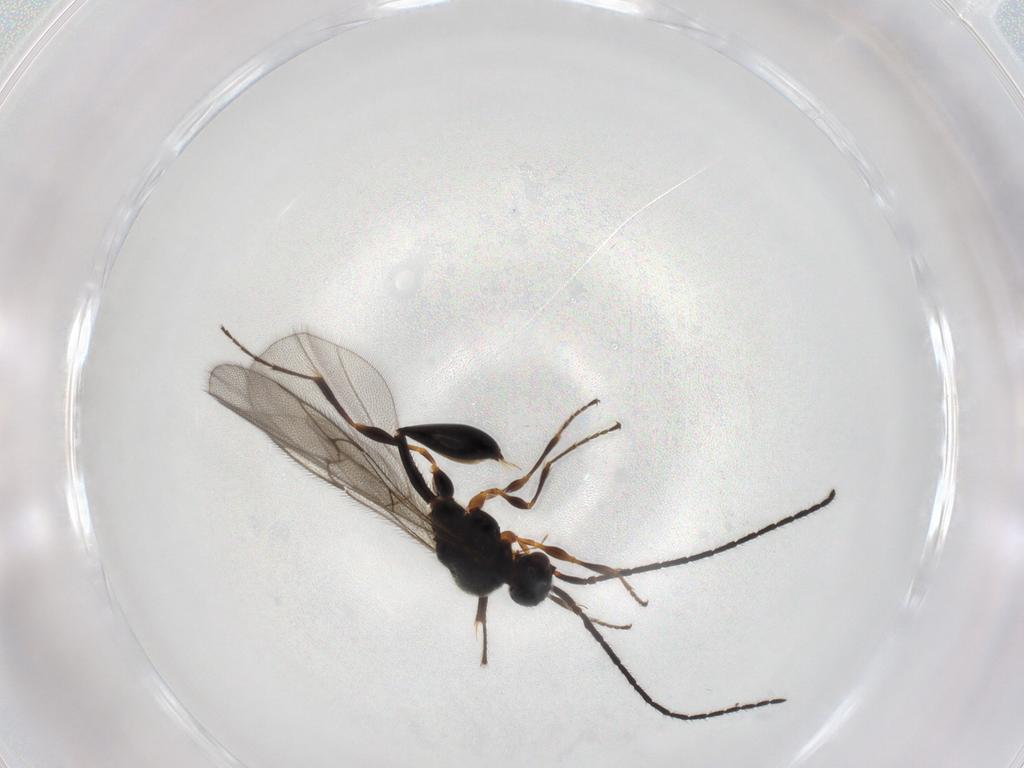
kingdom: Animalia
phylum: Arthropoda
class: Insecta
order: Hymenoptera
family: Diapriidae
